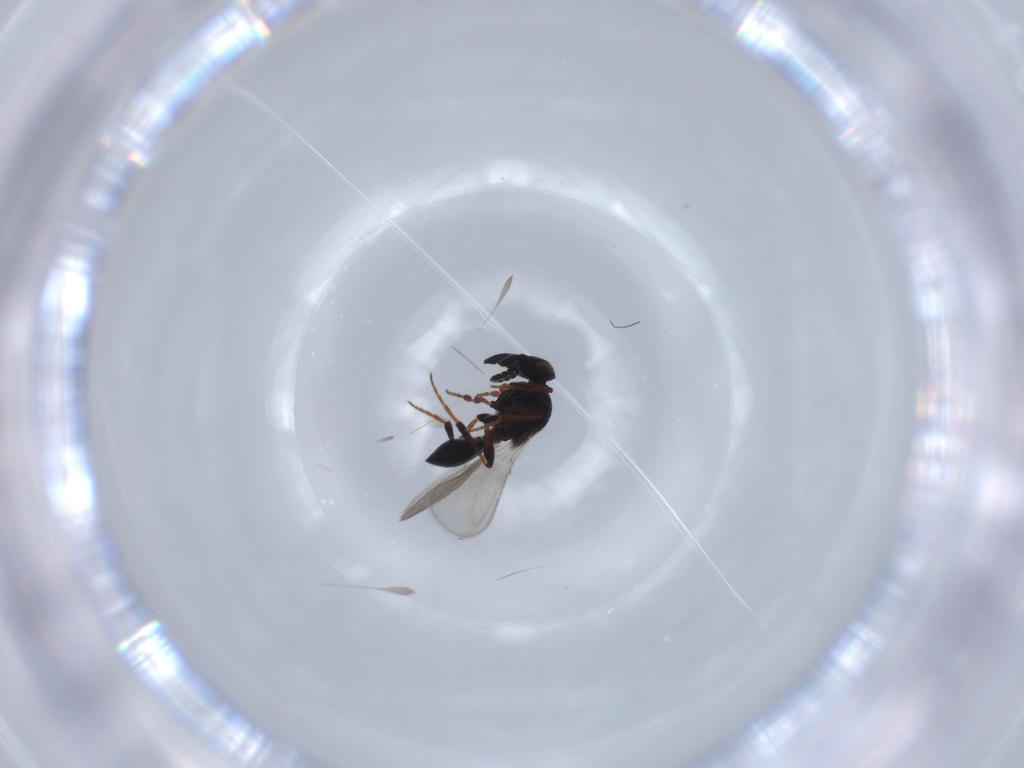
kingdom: Animalia
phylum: Arthropoda
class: Insecta
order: Hymenoptera
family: Platygastridae
